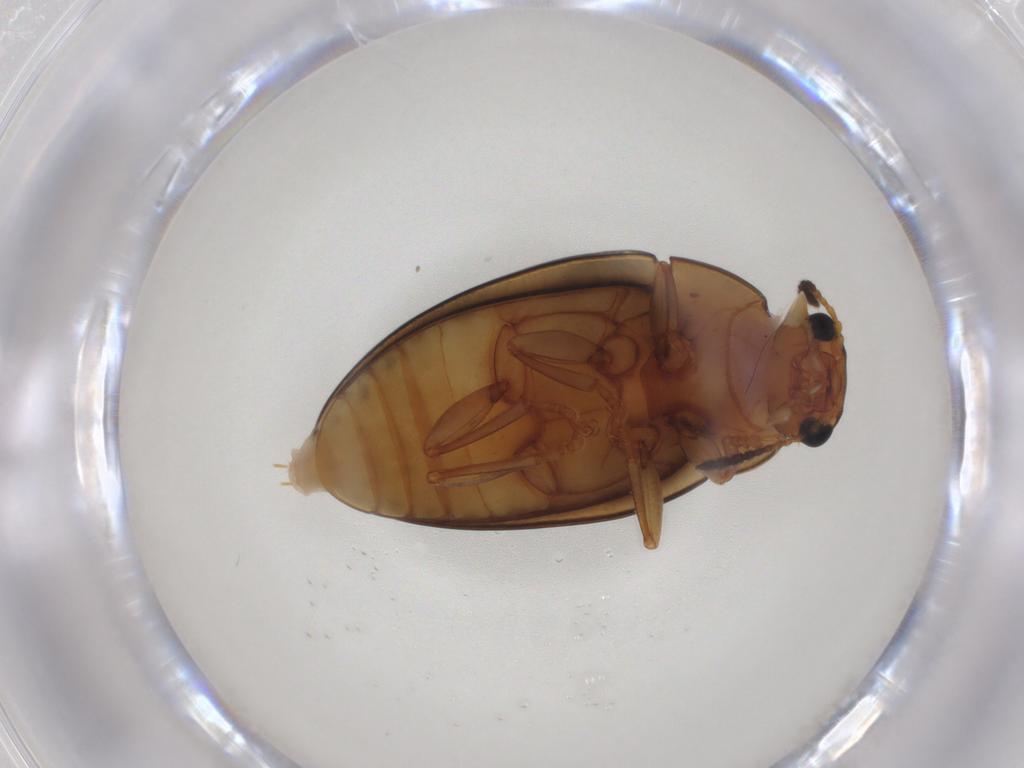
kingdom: Animalia
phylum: Arthropoda
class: Insecta
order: Coleoptera
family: Erotylidae
